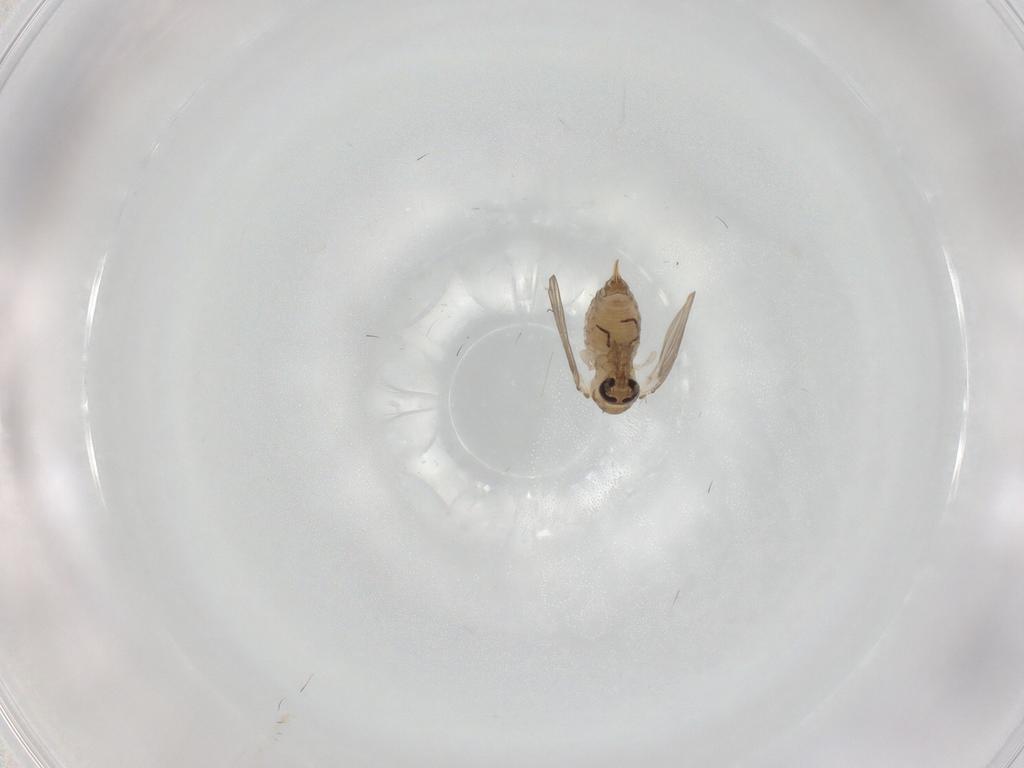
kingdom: Animalia
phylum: Arthropoda
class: Insecta
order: Diptera
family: Psychodidae
